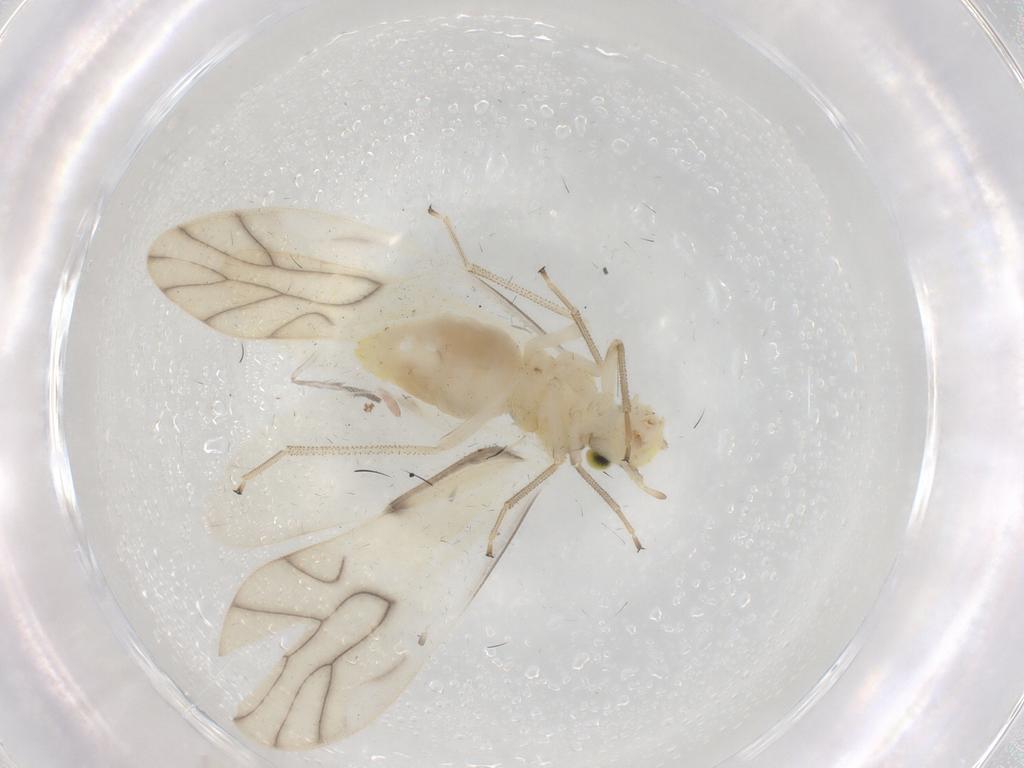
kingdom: Animalia
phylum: Arthropoda
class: Insecta
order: Psocodea
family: Caeciliusidae
